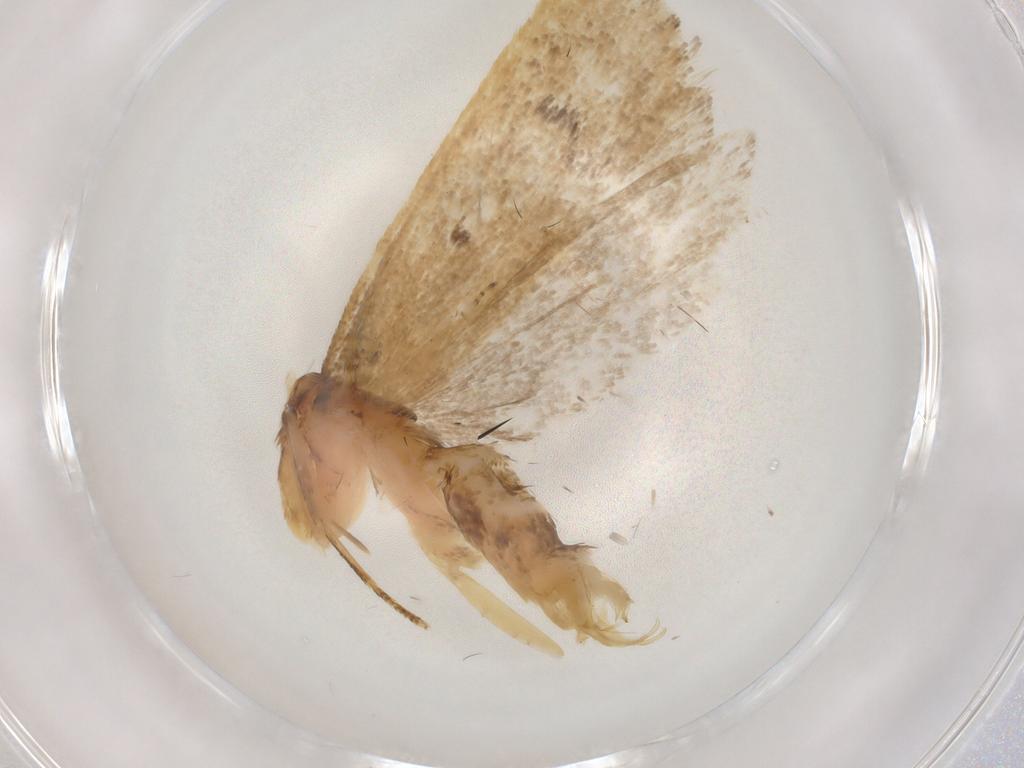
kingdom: Animalia
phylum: Arthropoda
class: Insecta
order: Lepidoptera
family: Lecithoceridae
